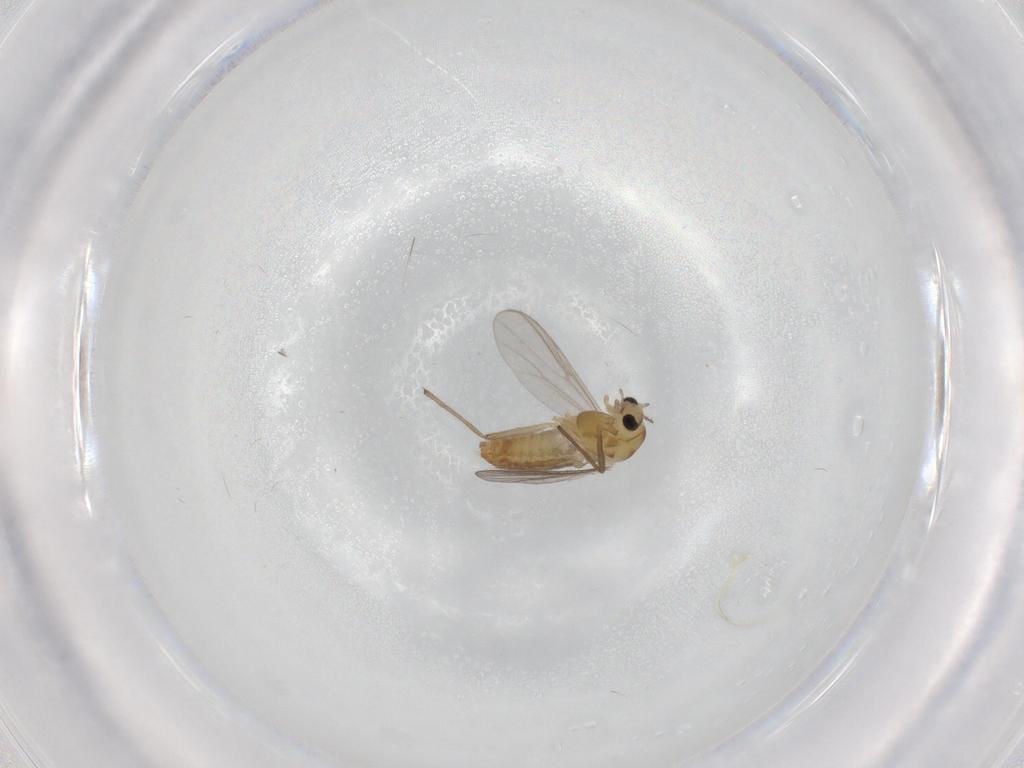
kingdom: Animalia
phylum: Arthropoda
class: Insecta
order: Diptera
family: Chironomidae
